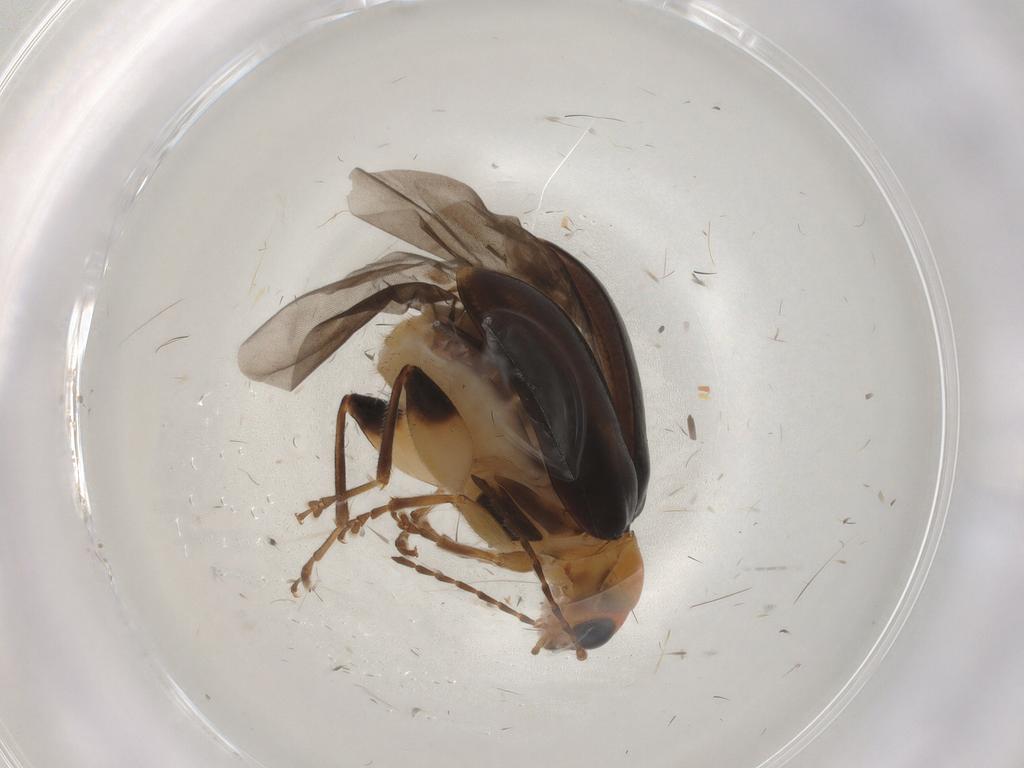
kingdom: Animalia
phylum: Arthropoda
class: Insecta
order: Coleoptera
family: Chrysomelidae
